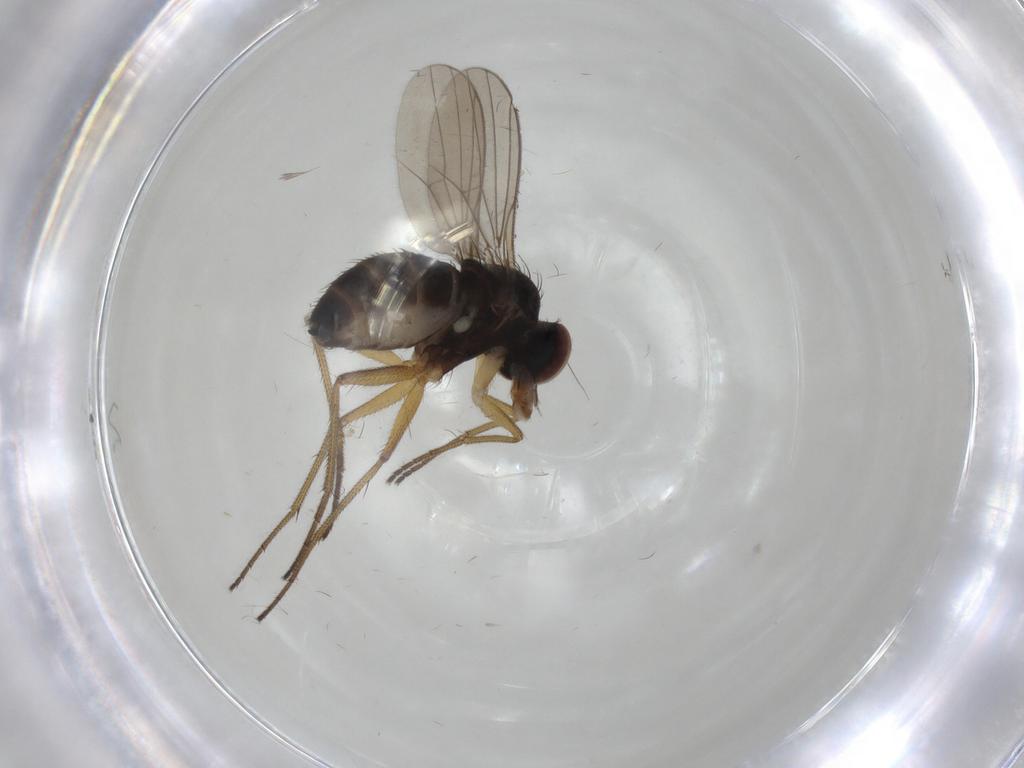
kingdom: Animalia
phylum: Arthropoda
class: Insecta
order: Diptera
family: Dolichopodidae
